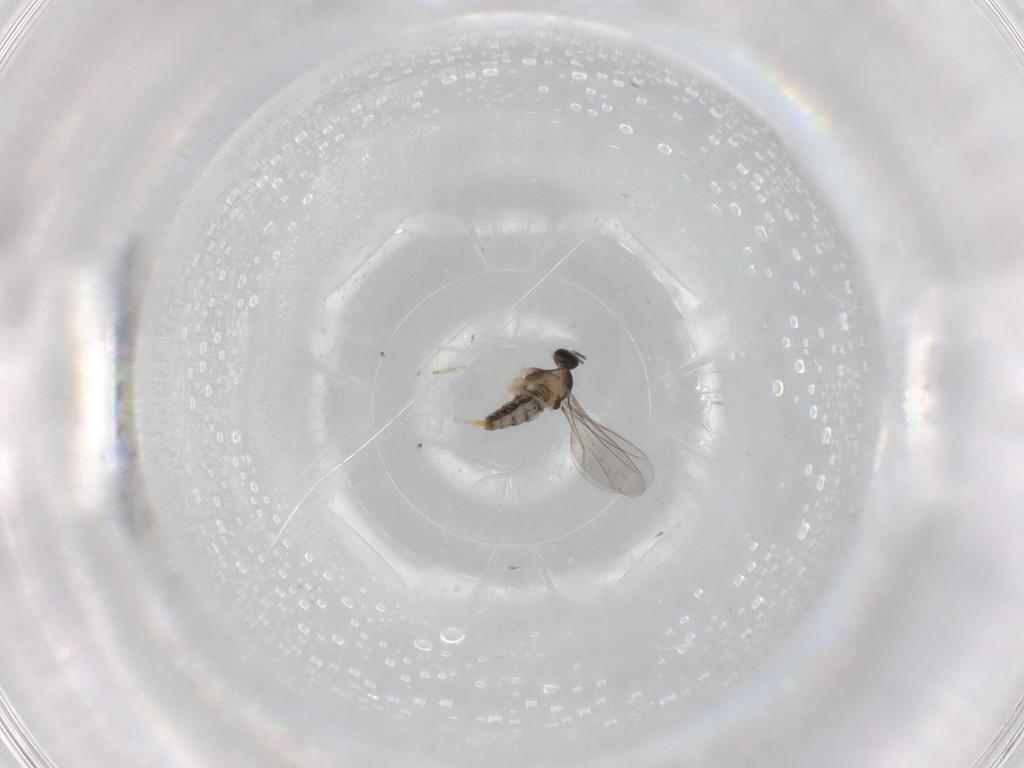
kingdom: Animalia
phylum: Arthropoda
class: Insecta
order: Diptera
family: Cecidomyiidae
